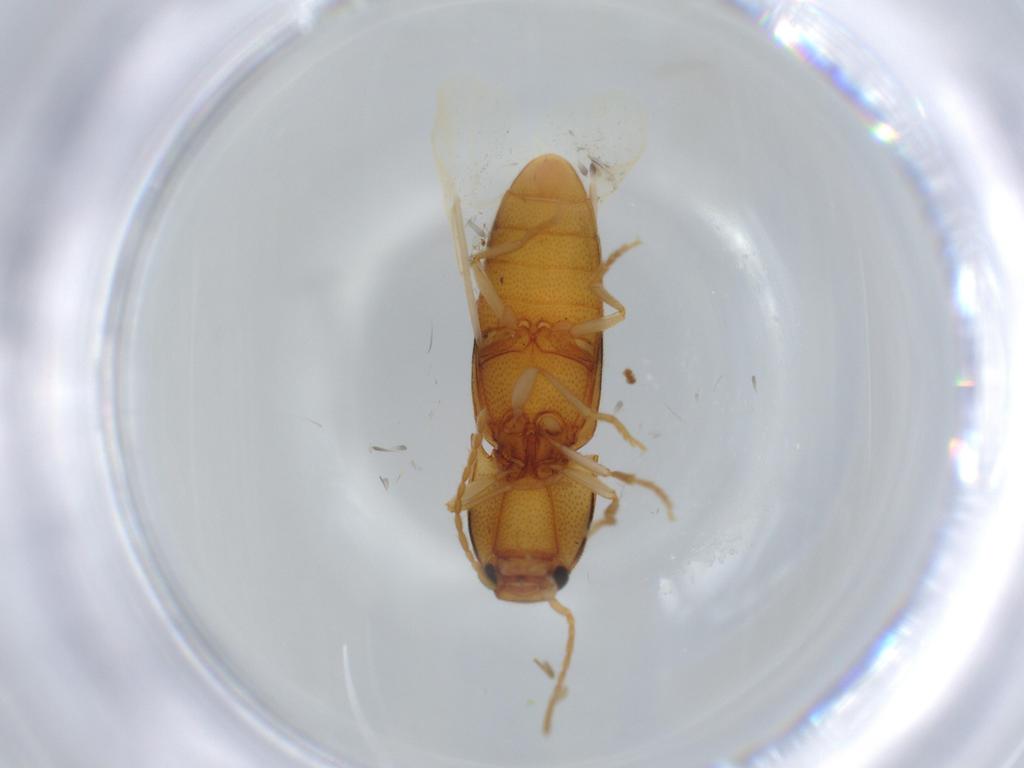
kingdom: Animalia
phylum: Arthropoda
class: Insecta
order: Coleoptera
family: Elateridae
